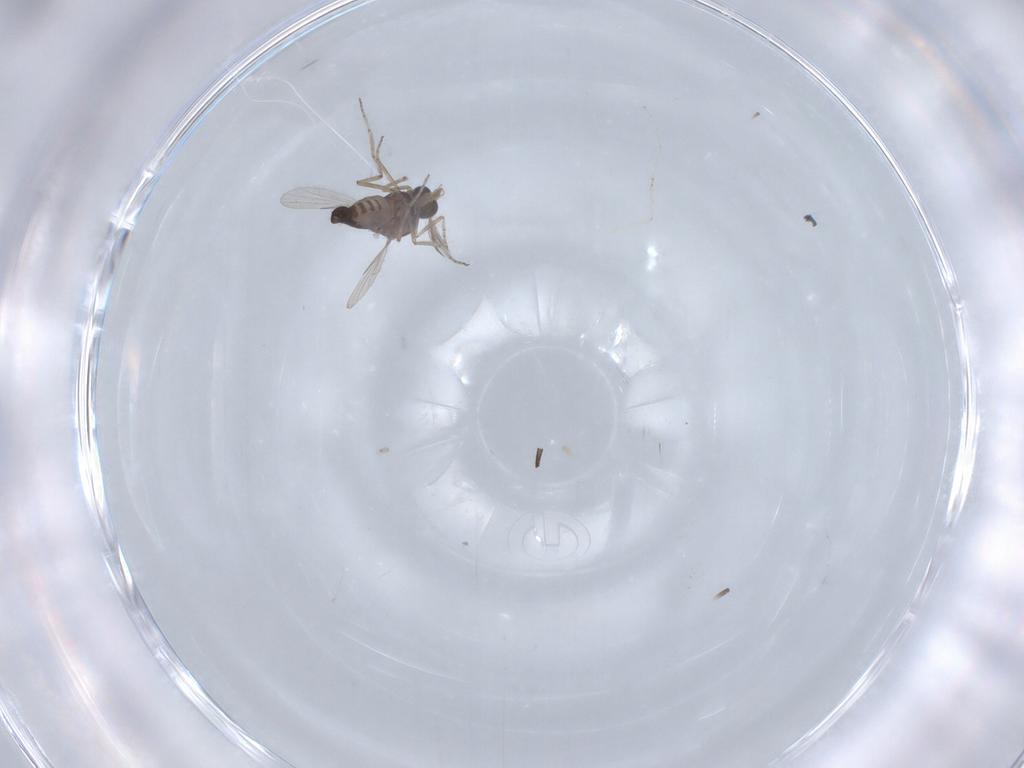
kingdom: Animalia
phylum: Arthropoda
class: Insecta
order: Diptera
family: Ceratopogonidae
